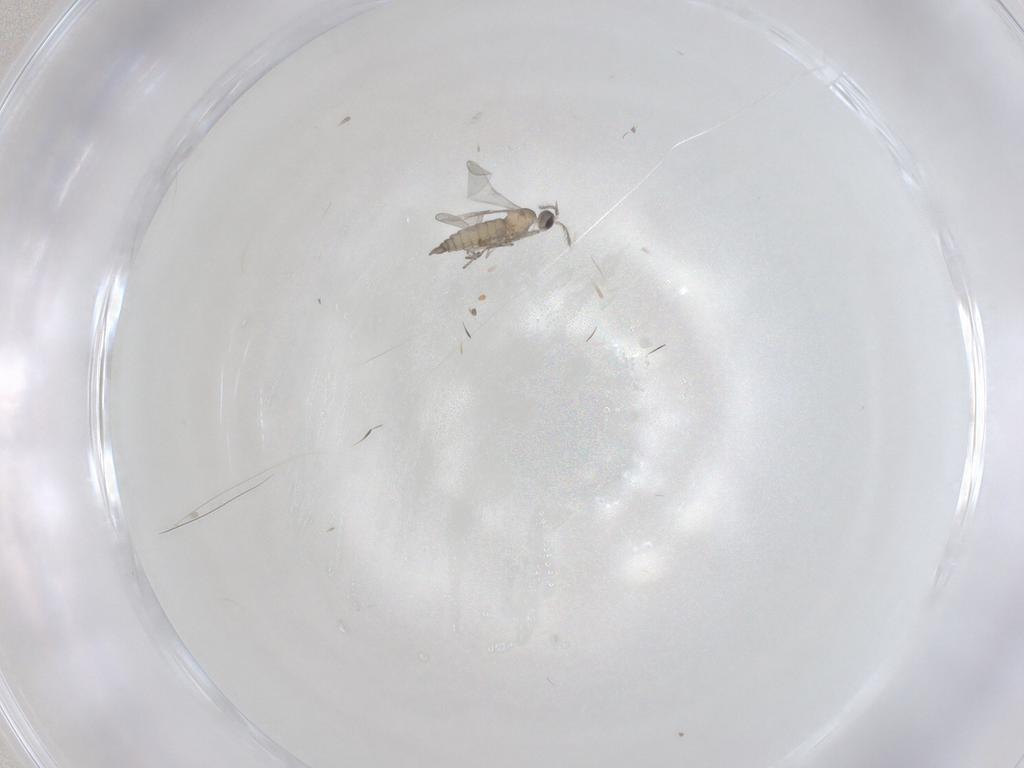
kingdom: Animalia
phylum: Arthropoda
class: Insecta
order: Diptera
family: Cecidomyiidae
